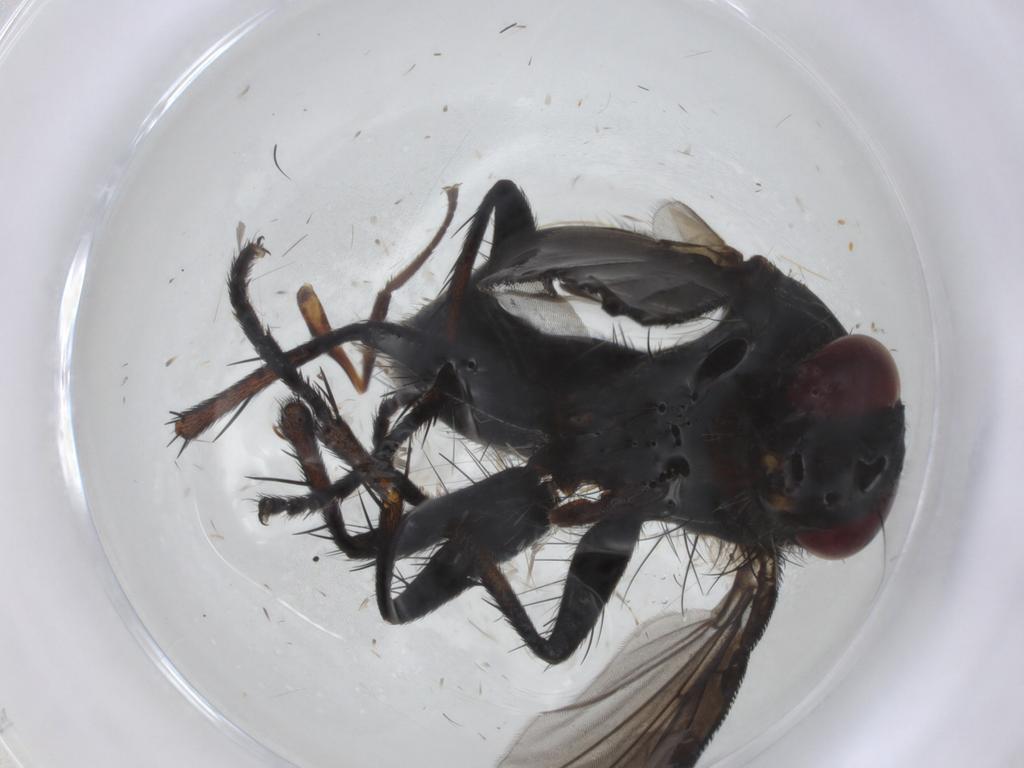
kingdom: Animalia
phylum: Arthropoda
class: Insecta
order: Diptera
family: Tephritidae
